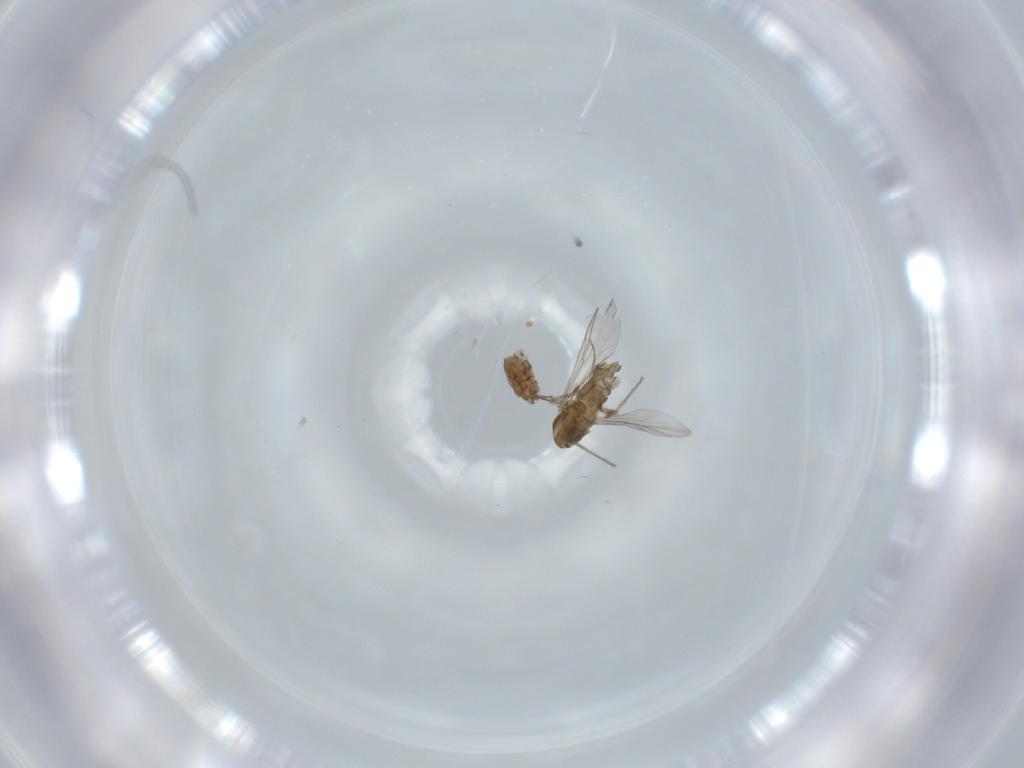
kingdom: Animalia
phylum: Arthropoda
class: Insecta
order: Diptera
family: Chironomidae
